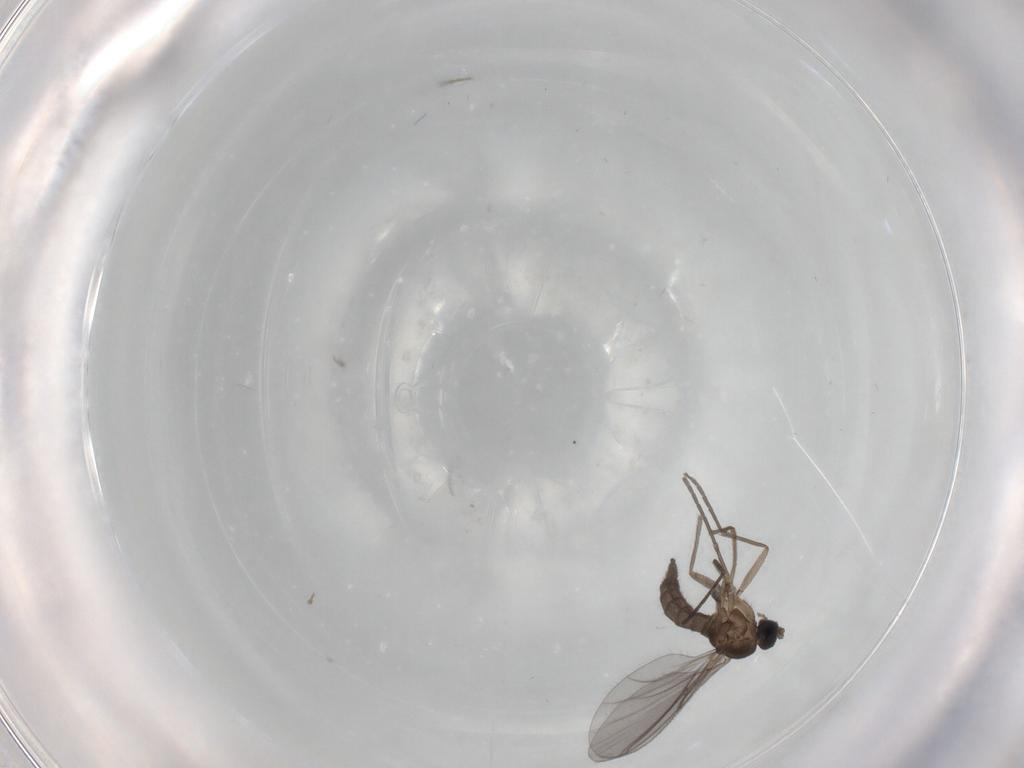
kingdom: Animalia
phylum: Arthropoda
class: Insecta
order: Diptera
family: Sciaridae
